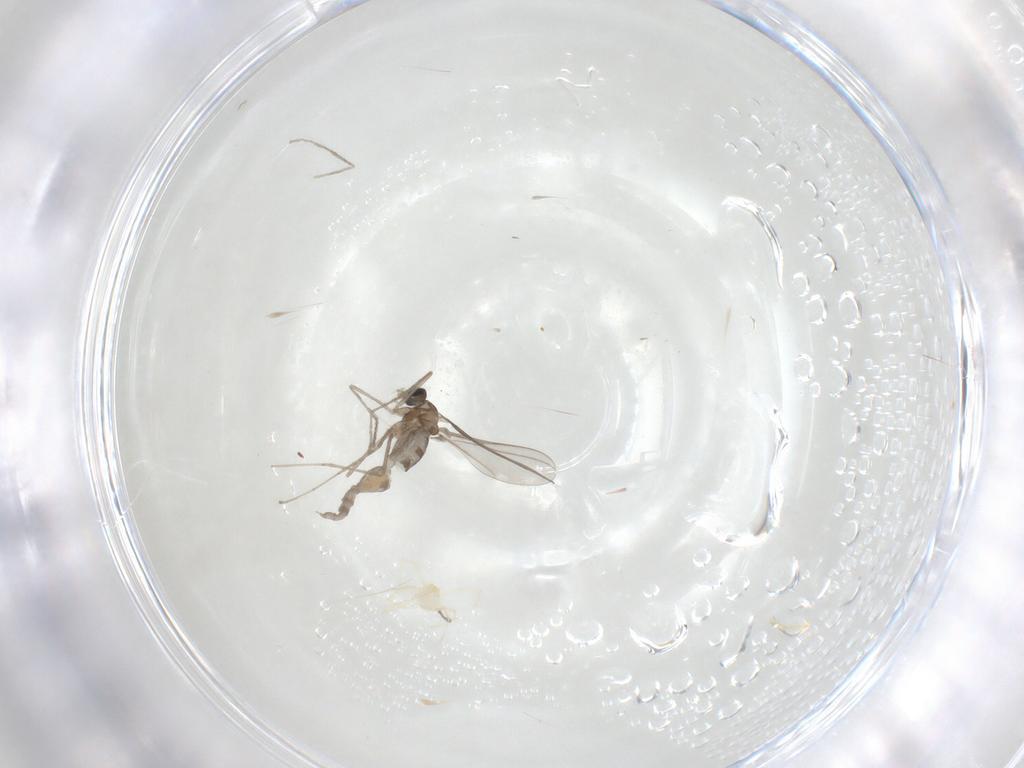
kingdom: Animalia
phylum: Arthropoda
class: Insecta
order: Diptera
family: Cecidomyiidae
